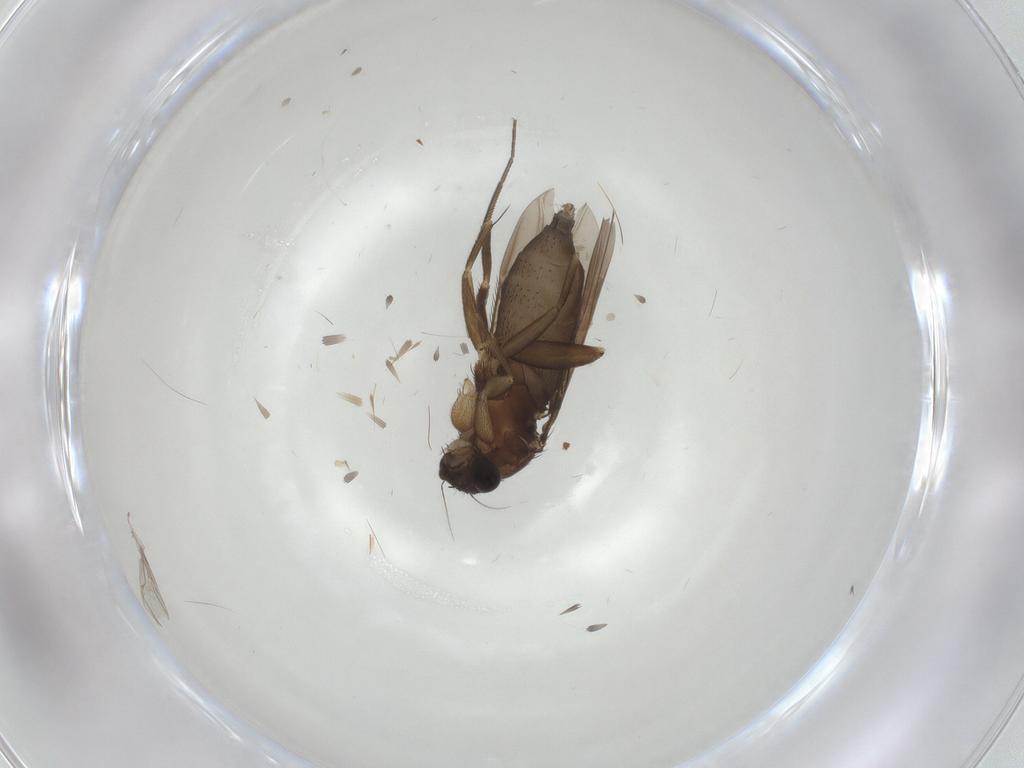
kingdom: Animalia
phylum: Arthropoda
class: Insecta
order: Diptera
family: Phoridae
